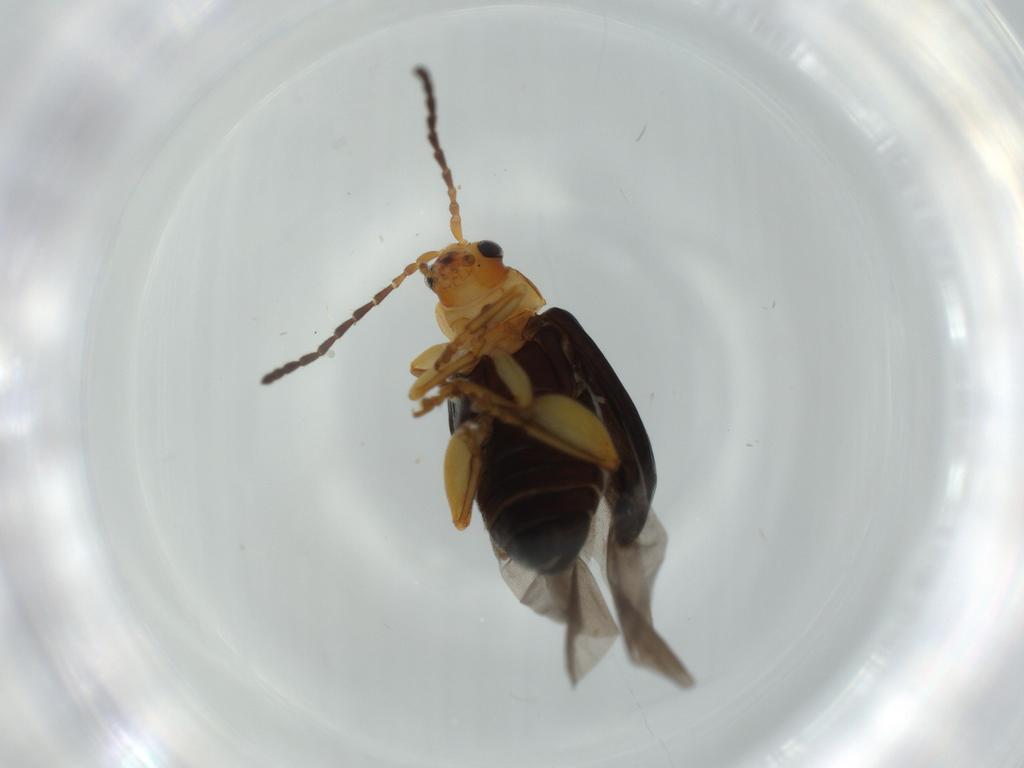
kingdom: Animalia
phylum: Arthropoda
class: Insecta
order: Coleoptera
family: Chrysomelidae
